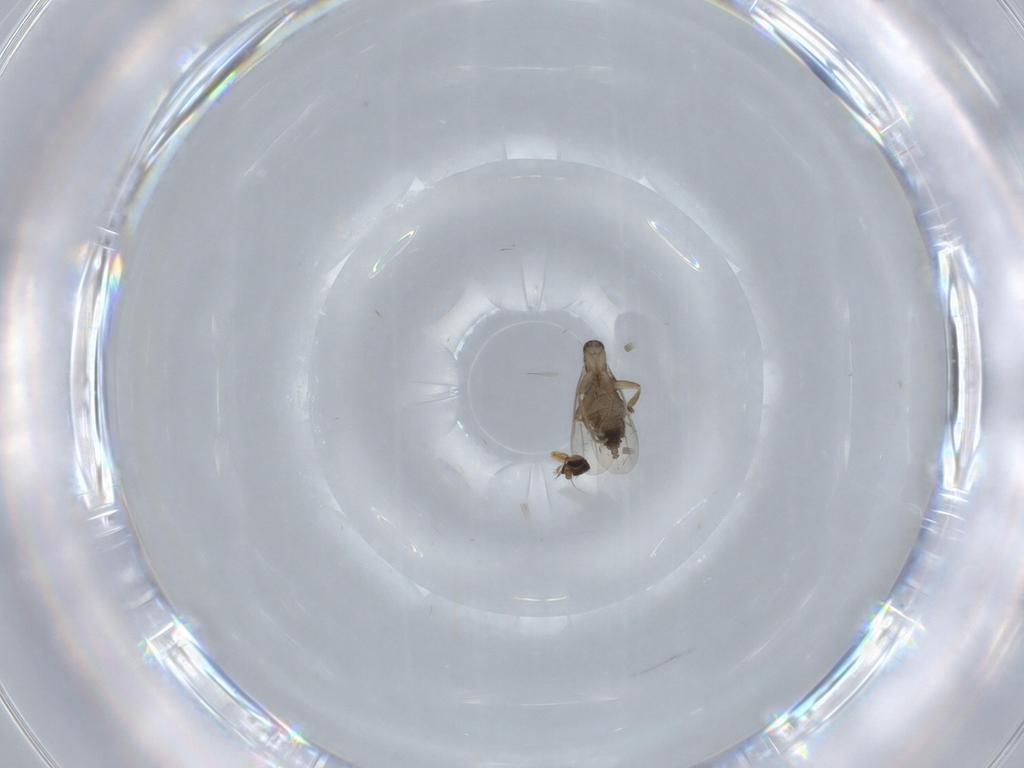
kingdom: Animalia
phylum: Arthropoda
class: Insecta
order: Diptera
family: Phoridae
